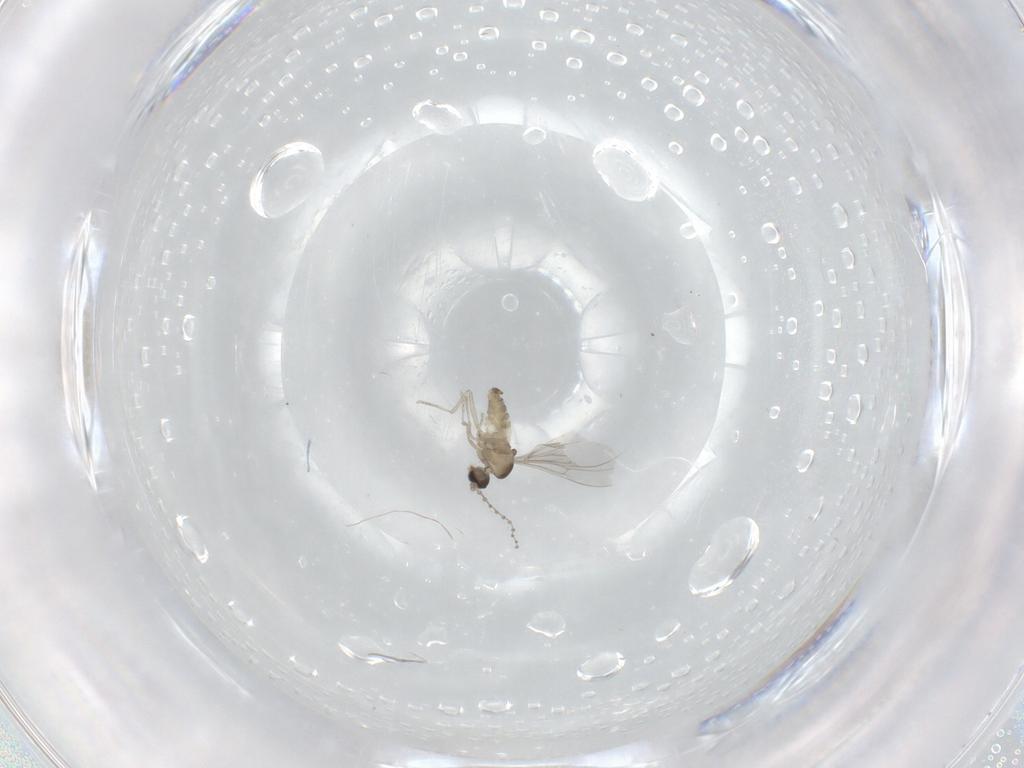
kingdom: Animalia
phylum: Arthropoda
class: Insecta
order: Diptera
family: Cecidomyiidae
